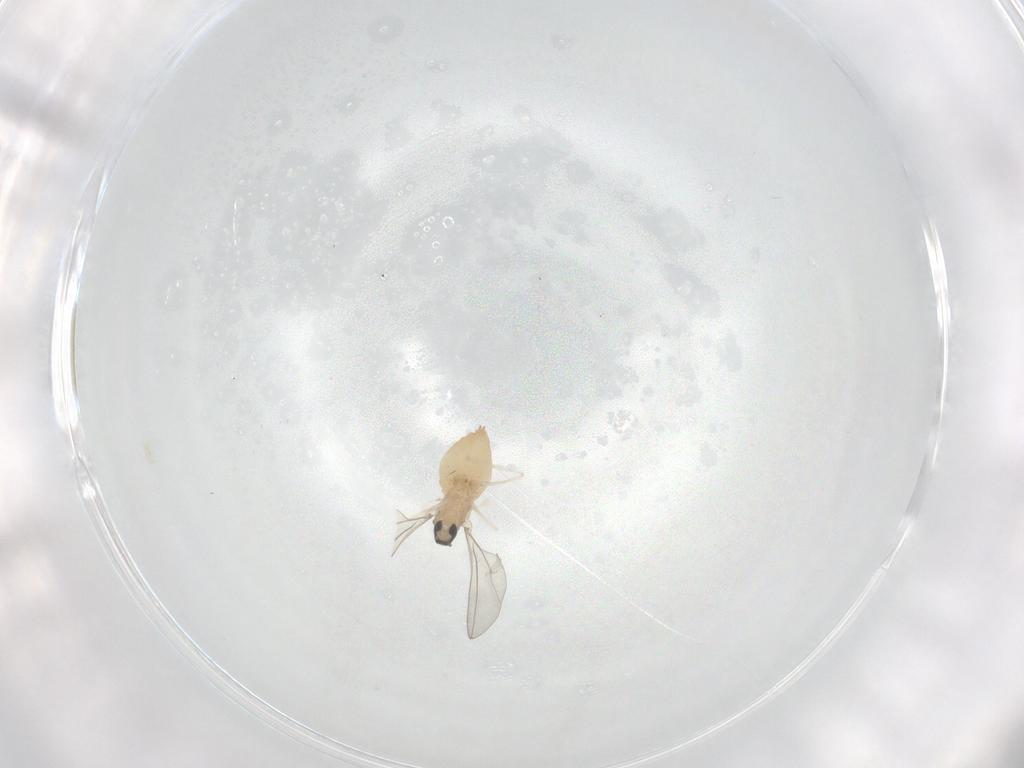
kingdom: Animalia
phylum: Arthropoda
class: Insecta
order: Diptera
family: Cecidomyiidae
